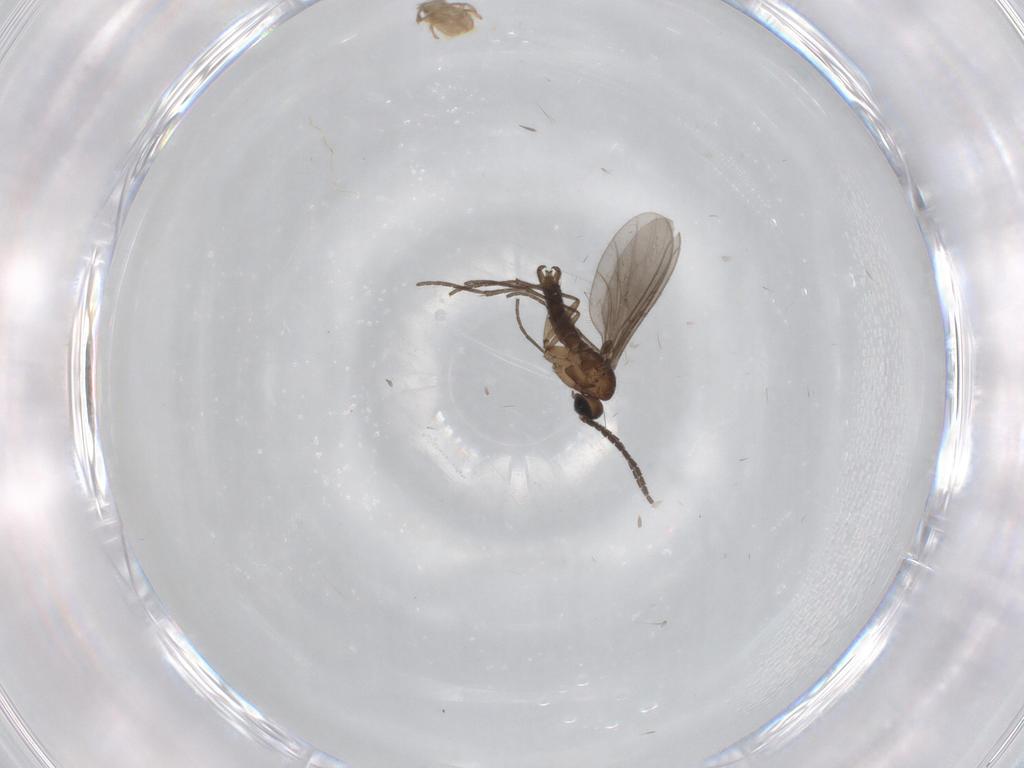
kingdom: Animalia
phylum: Arthropoda
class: Insecta
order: Diptera
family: Sciaridae
